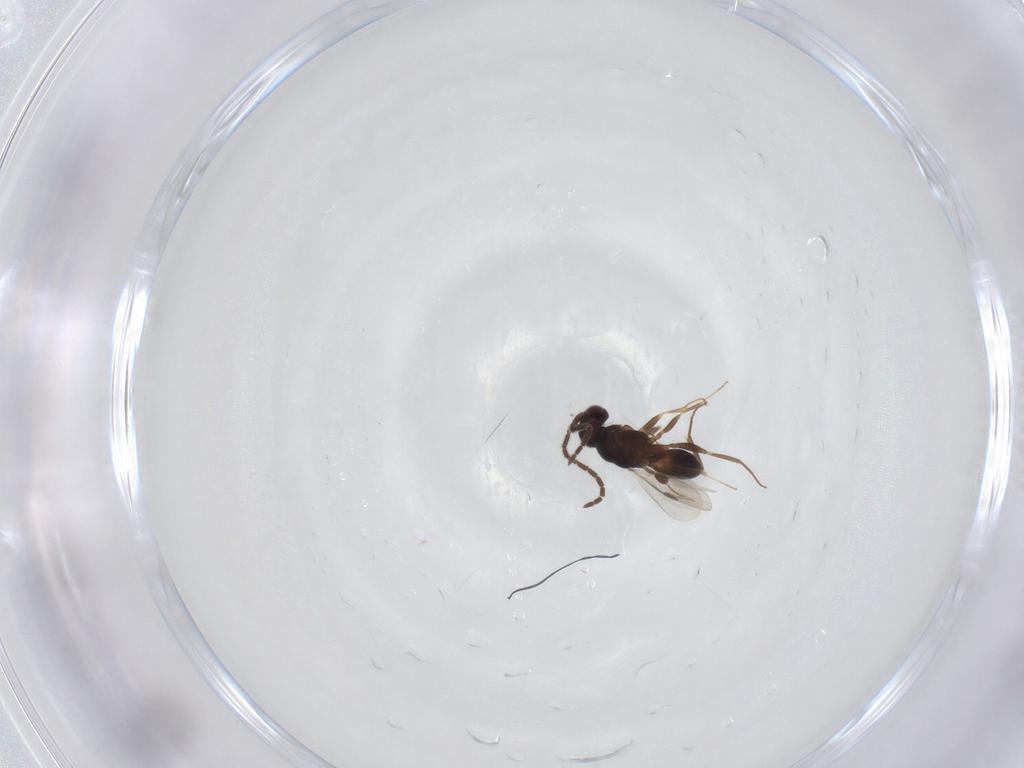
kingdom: Animalia
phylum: Arthropoda
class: Insecta
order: Hymenoptera
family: Megaspilidae
